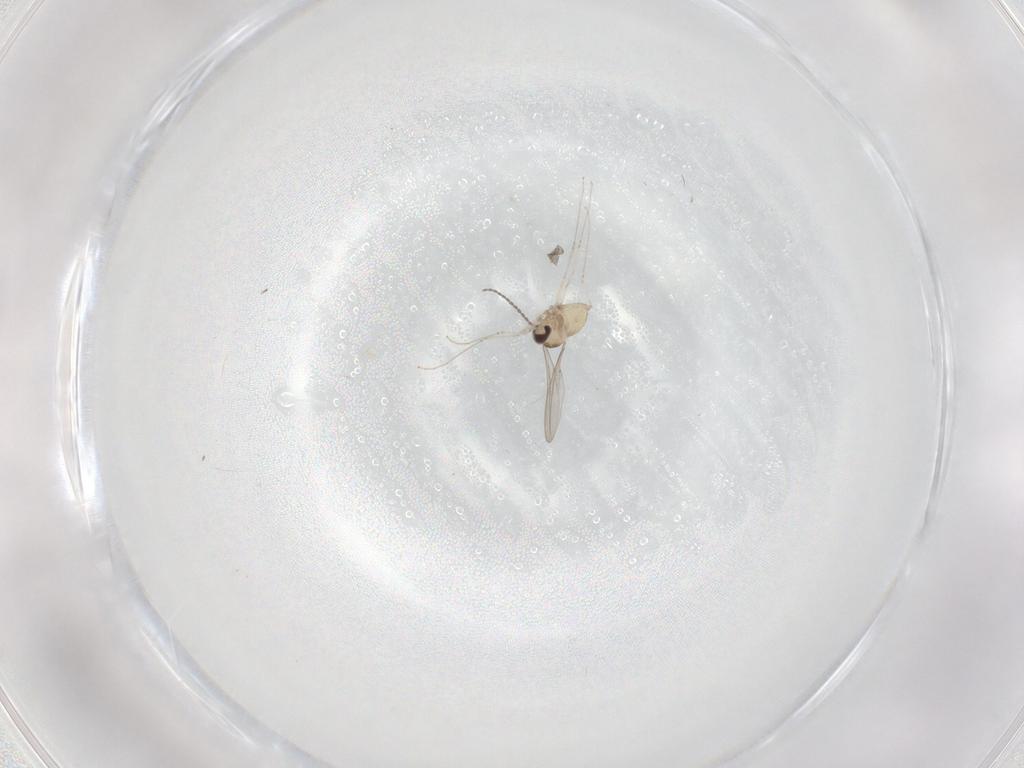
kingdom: Animalia
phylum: Arthropoda
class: Insecta
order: Diptera
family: Cecidomyiidae
